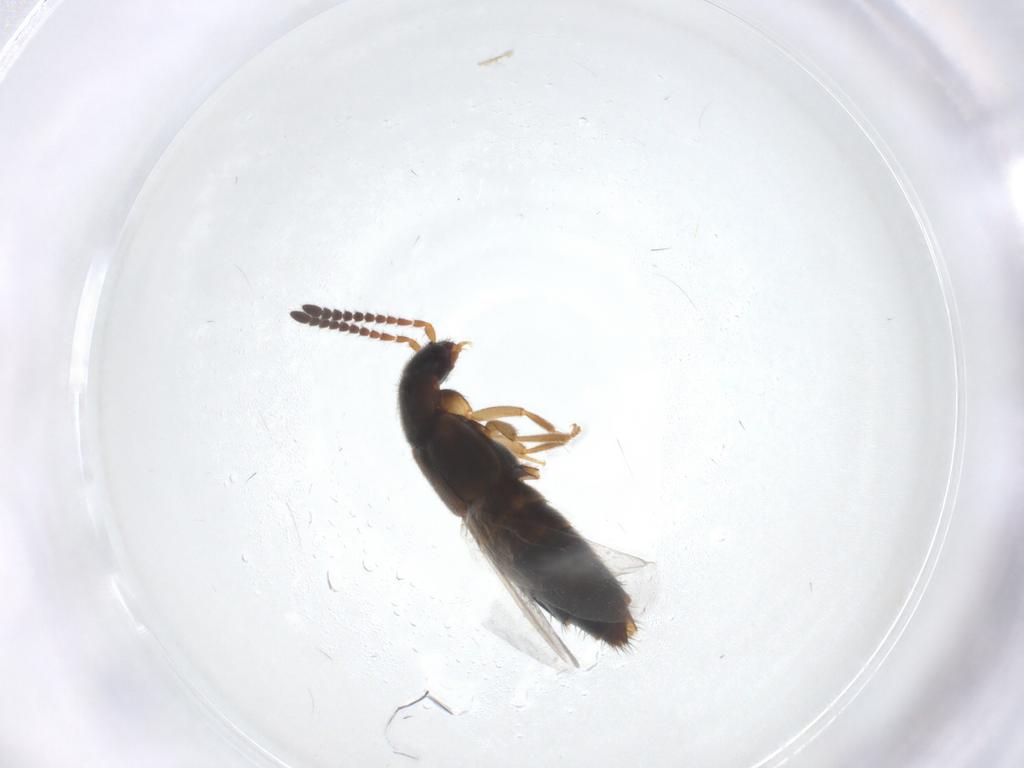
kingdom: Animalia
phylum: Arthropoda
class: Insecta
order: Coleoptera
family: Staphylinidae
